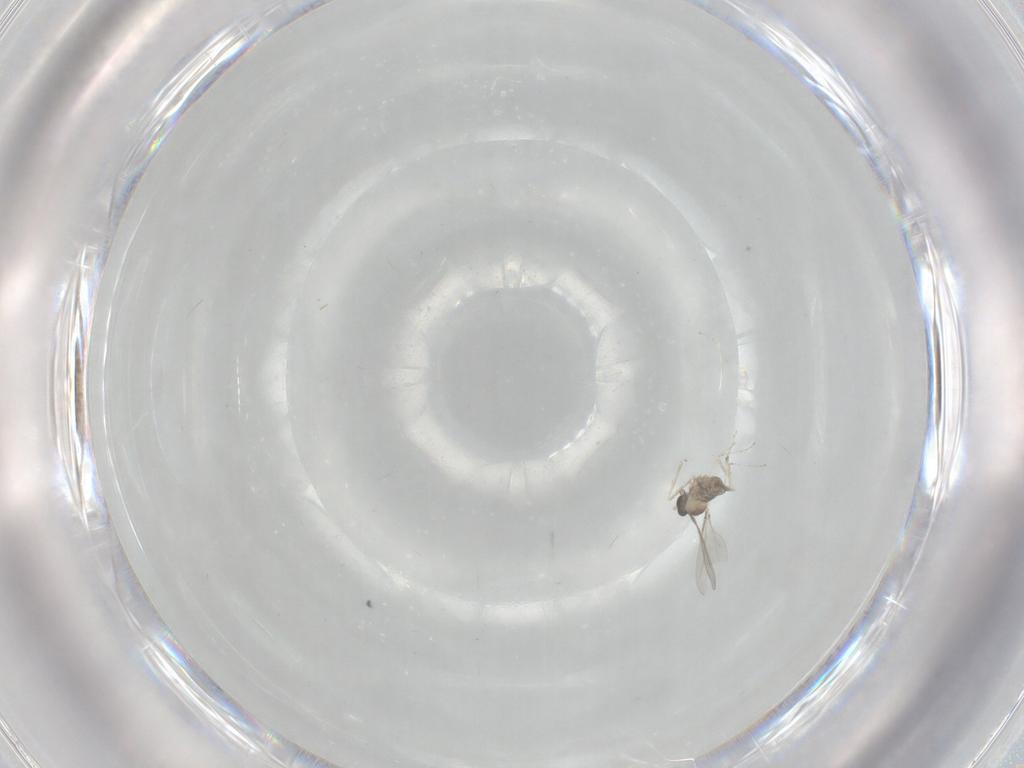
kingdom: Animalia
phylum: Arthropoda
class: Insecta
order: Diptera
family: Cecidomyiidae
